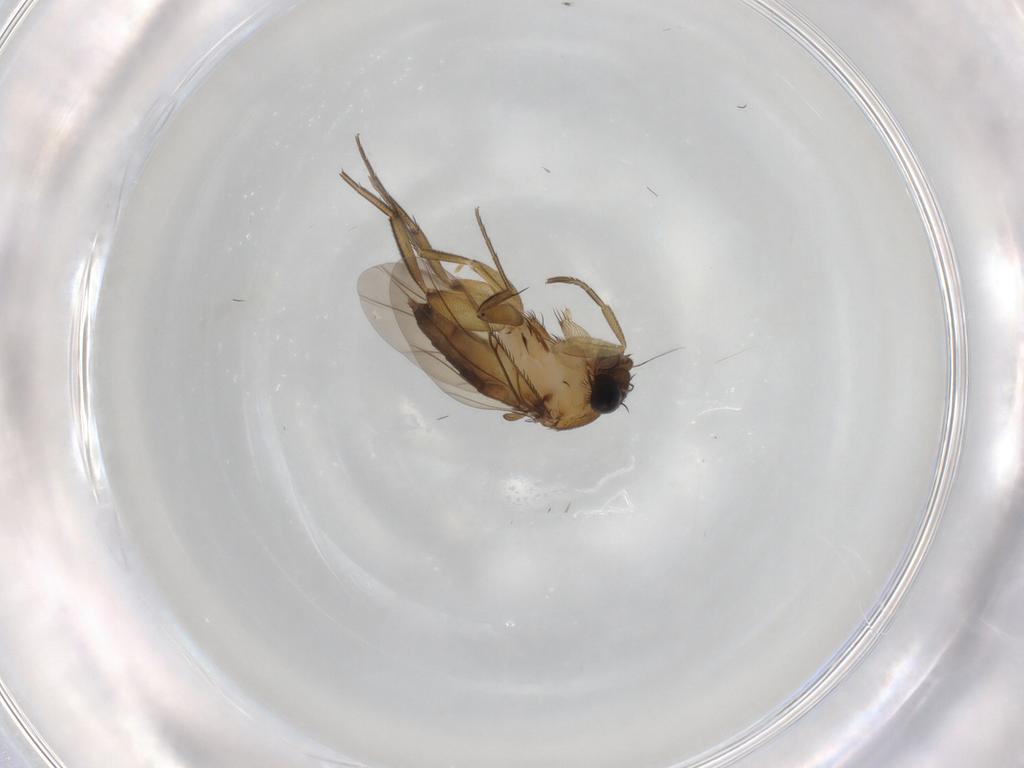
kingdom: Animalia
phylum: Arthropoda
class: Insecta
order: Diptera
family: Phoridae
